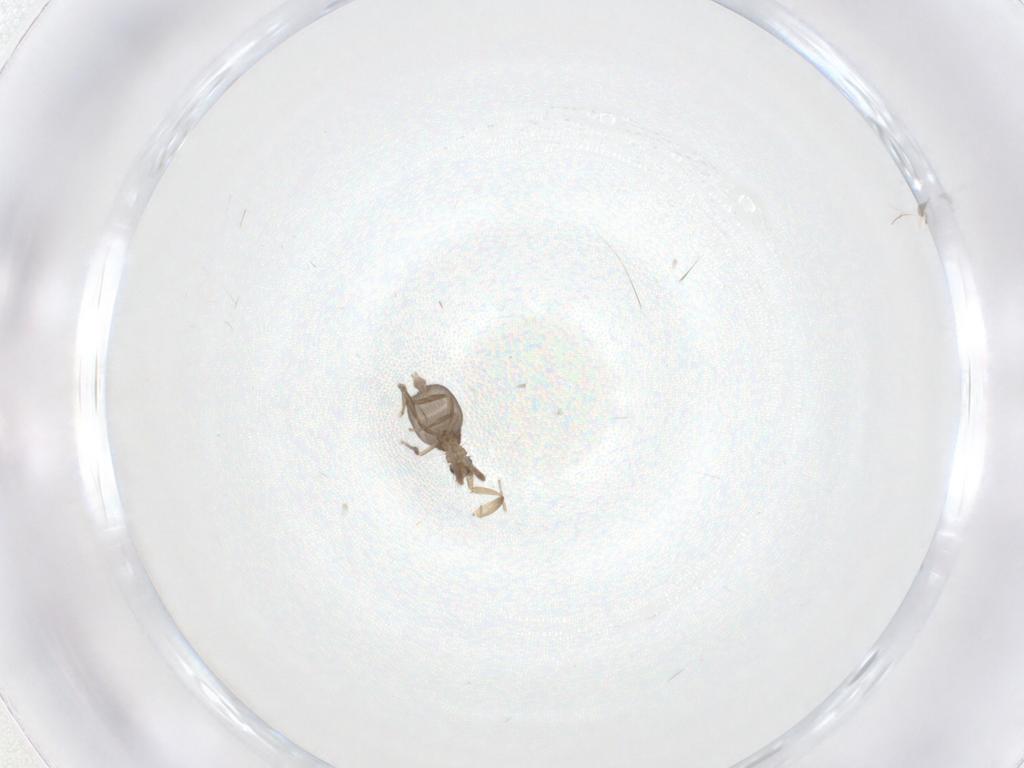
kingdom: Animalia
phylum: Arthropoda
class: Insecta
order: Diptera
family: Phoridae
